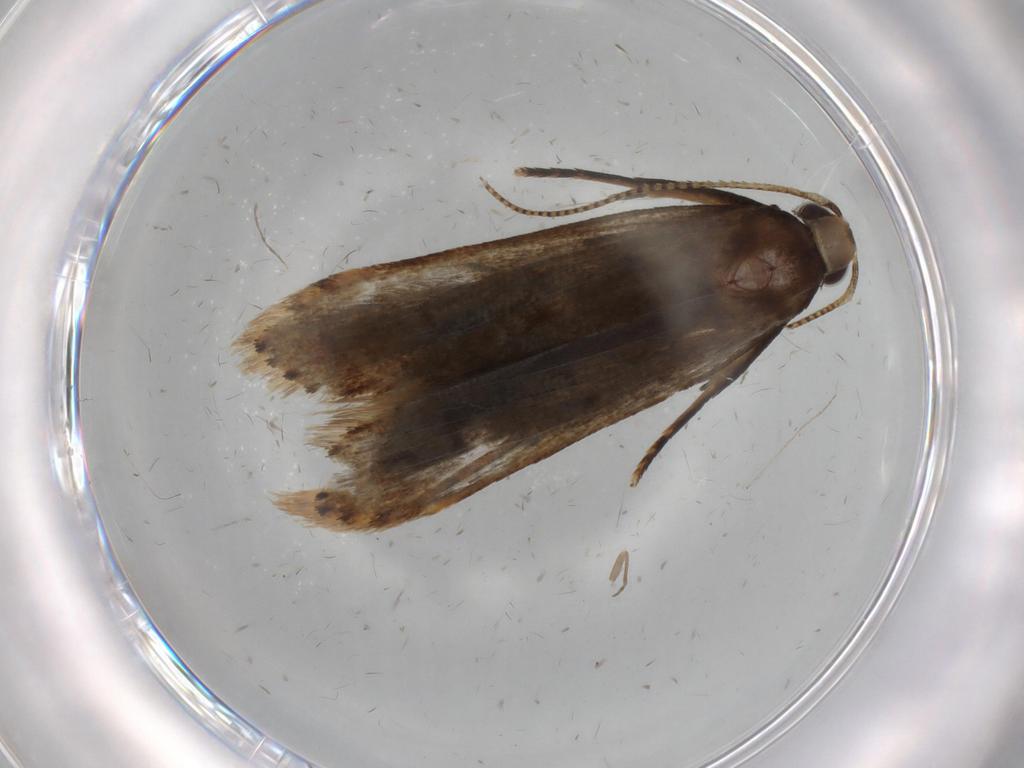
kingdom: Animalia
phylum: Arthropoda
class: Insecta
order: Lepidoptera
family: Gelechiidae
